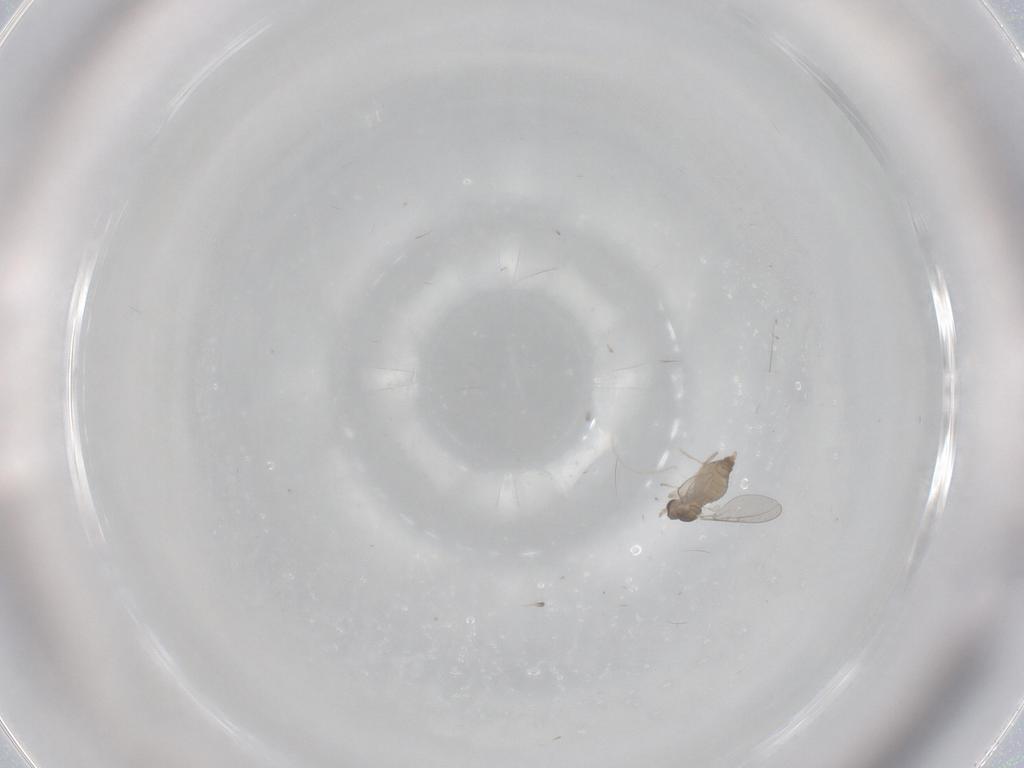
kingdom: Animalia
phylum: Arthropoda
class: Insecta
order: Diptera
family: Cecidomyiidae
